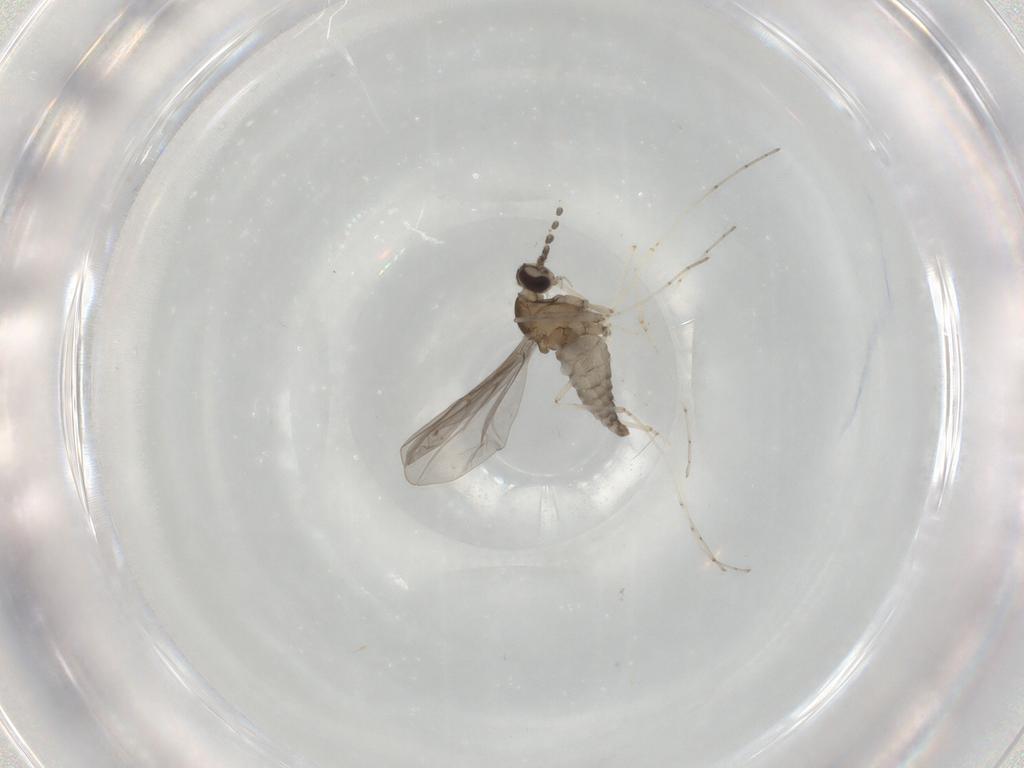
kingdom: Animalia
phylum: Arthropoda
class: Insecta
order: Diptera
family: Cecidomyiidae
